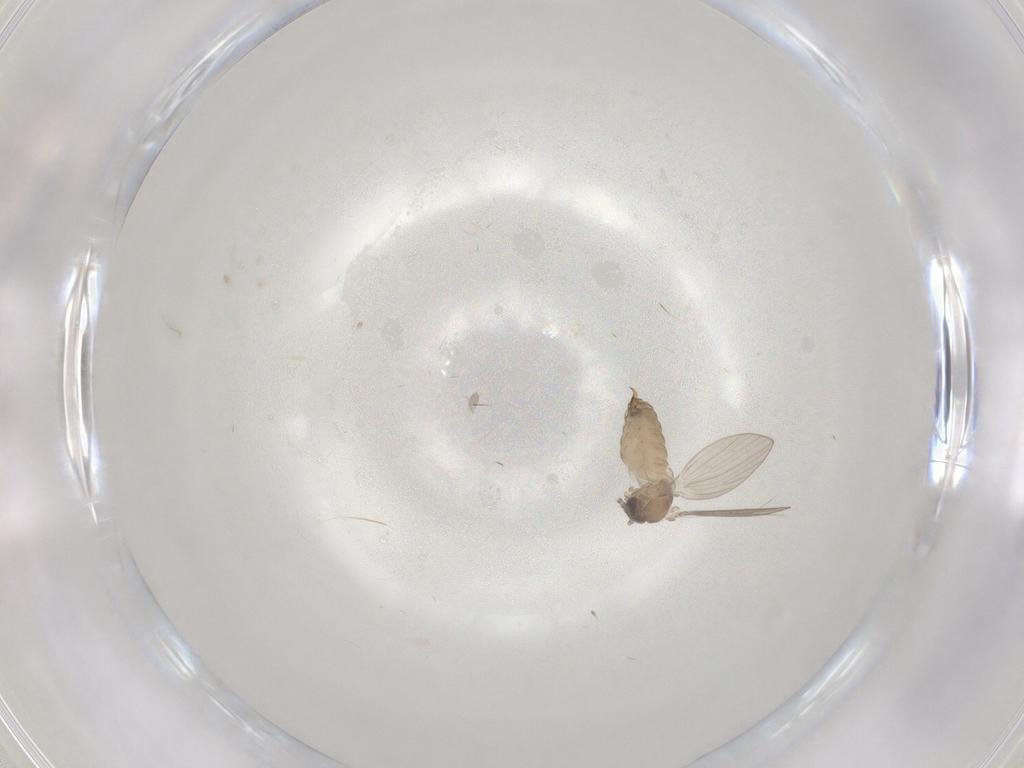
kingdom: Animalia
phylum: Arthropoda
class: Insecta
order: Diptera
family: Psychodidae
